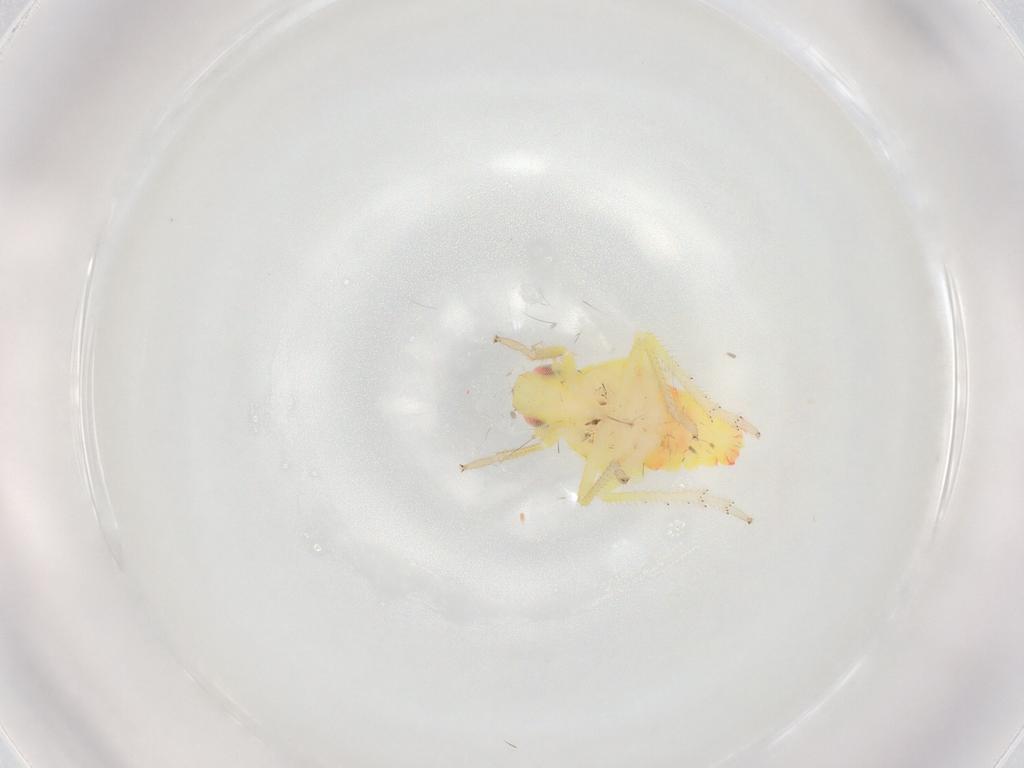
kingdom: Animalia
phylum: Arthropoda
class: Insecta
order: Hemiptera
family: Tropiduchidae
